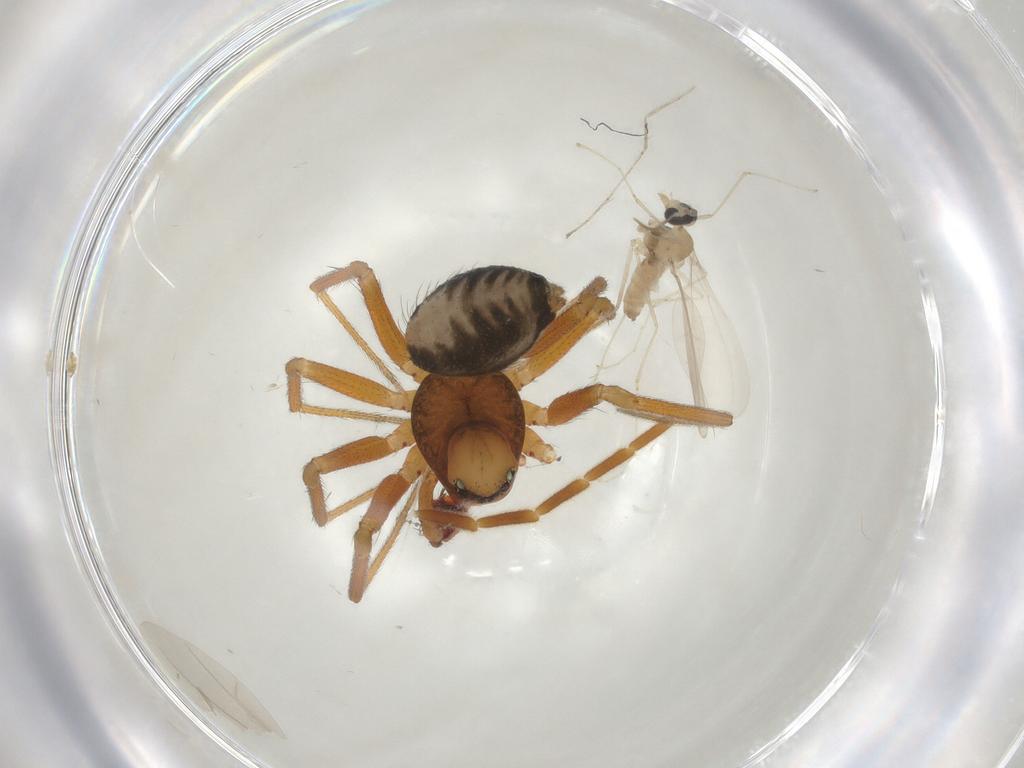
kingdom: Animalia
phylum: Arthropoda
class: Arachnida
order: Araneae
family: Linyphiidae
